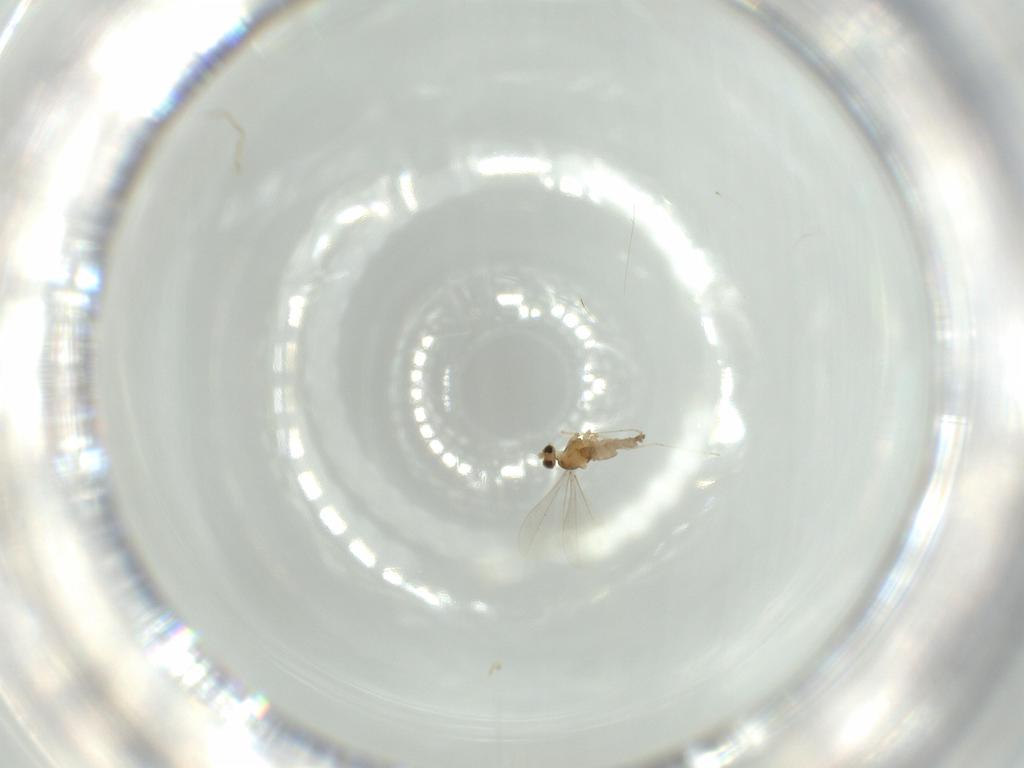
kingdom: Animalia
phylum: Arthropoda
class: Insecta
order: Diptera
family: Cecidomyiidae
